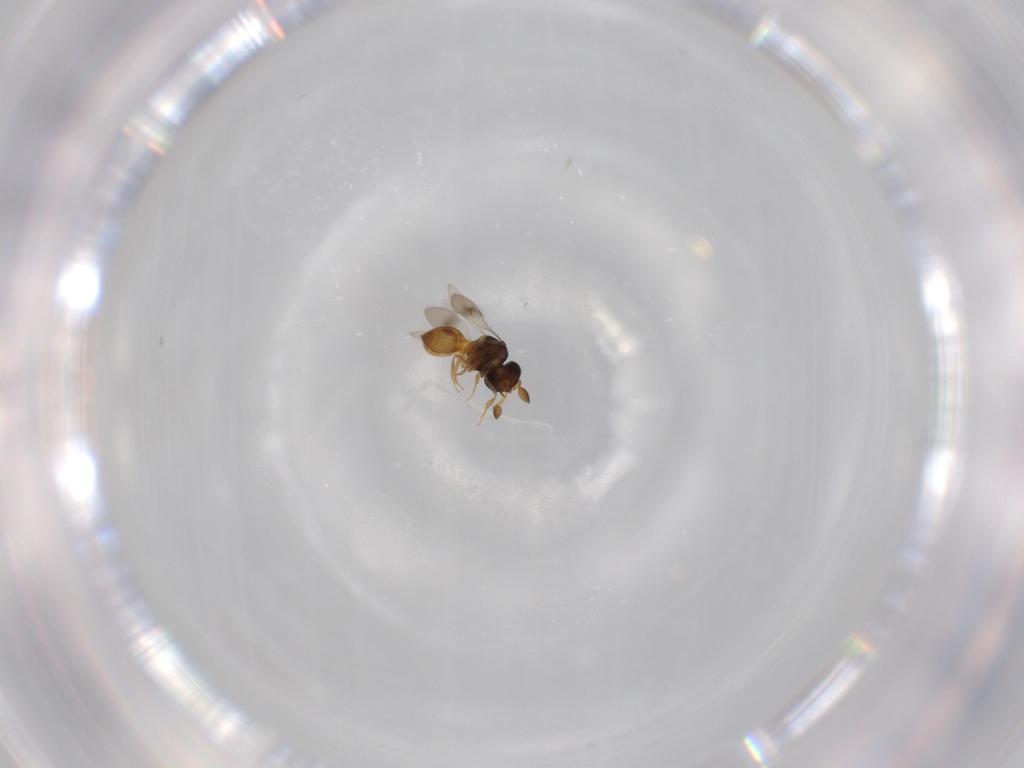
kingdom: Animalia
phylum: Arthropoda
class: Insecta
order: Hymenoptera
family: Scelionidae
